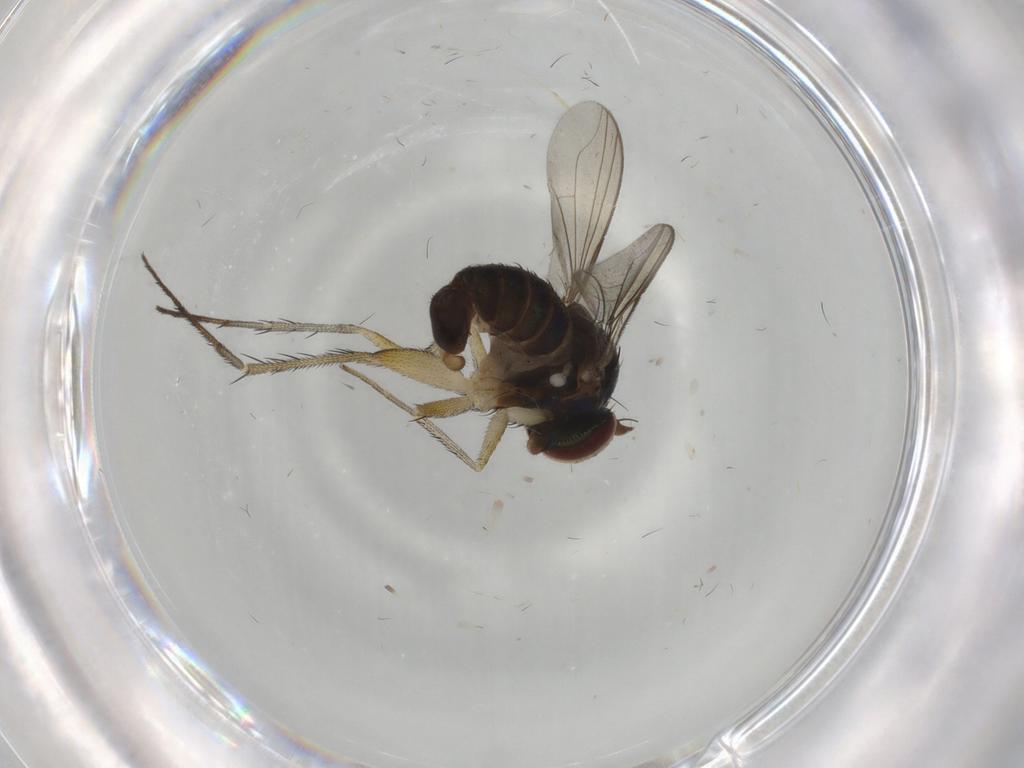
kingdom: Animalia
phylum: Arthropoda
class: Insecta
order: Diptera
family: Dolichopodidae
